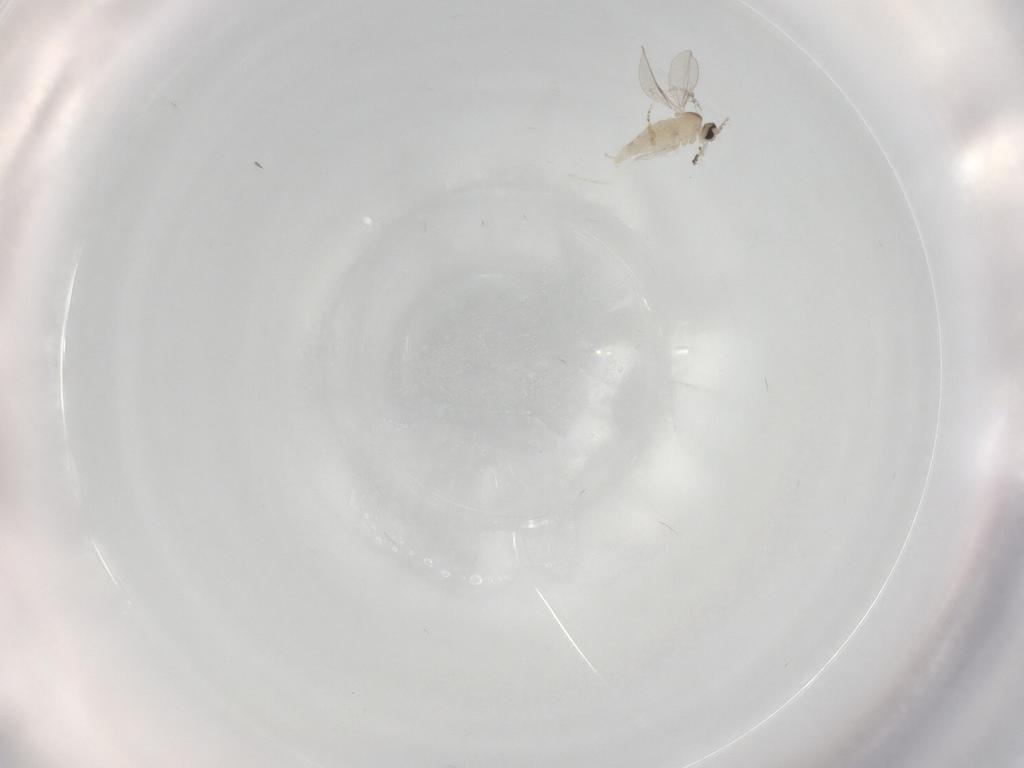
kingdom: Animalia
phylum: Arthropoda
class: Insecta
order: Diptera
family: Ceratopogonidae
